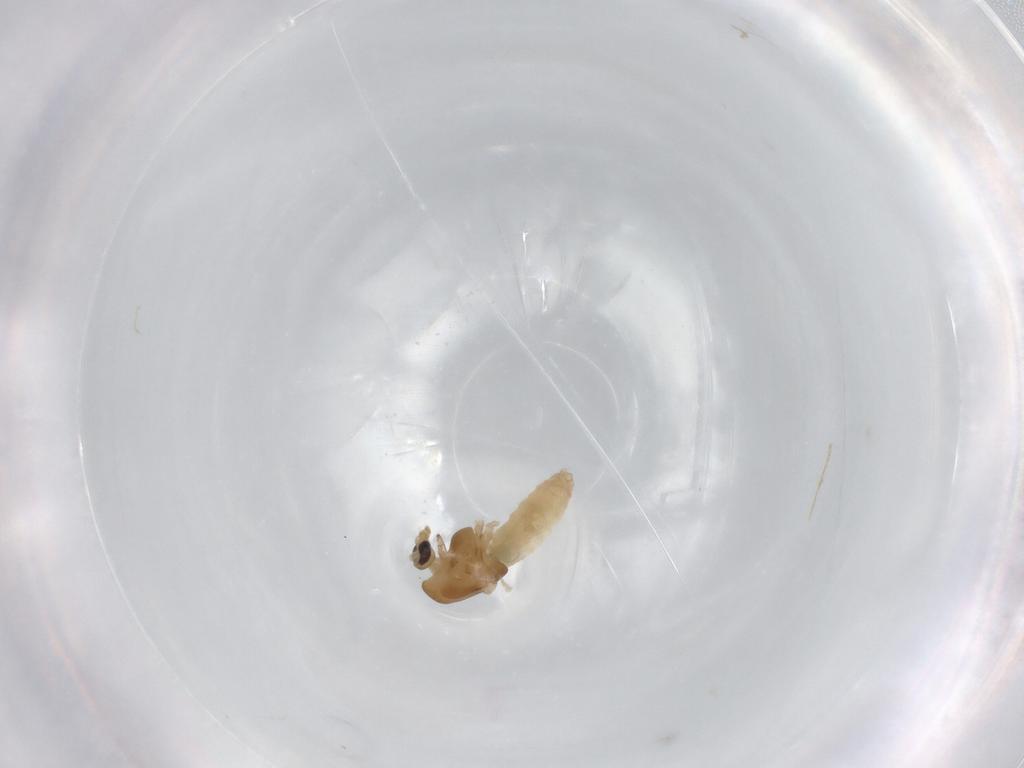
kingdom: Animalia
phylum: Arthropoda
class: Insecta
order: Diptera
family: Chironomidae
